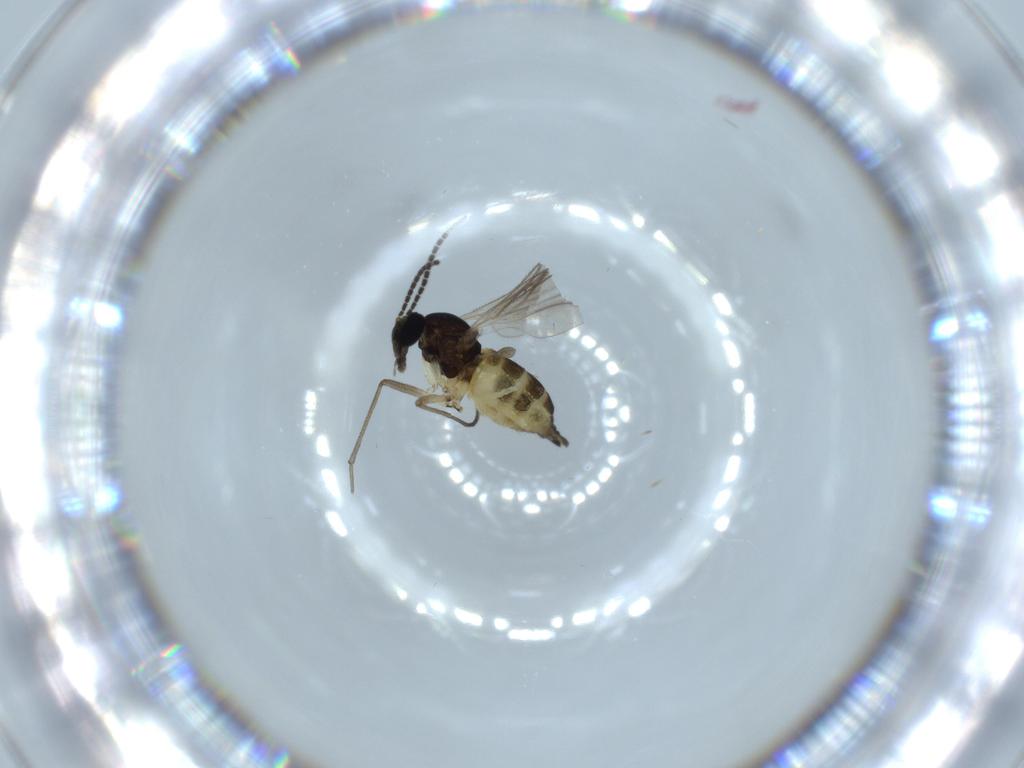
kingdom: Animalia
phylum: Arthropoda
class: Insecta
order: Diptera
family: Sciaridae
